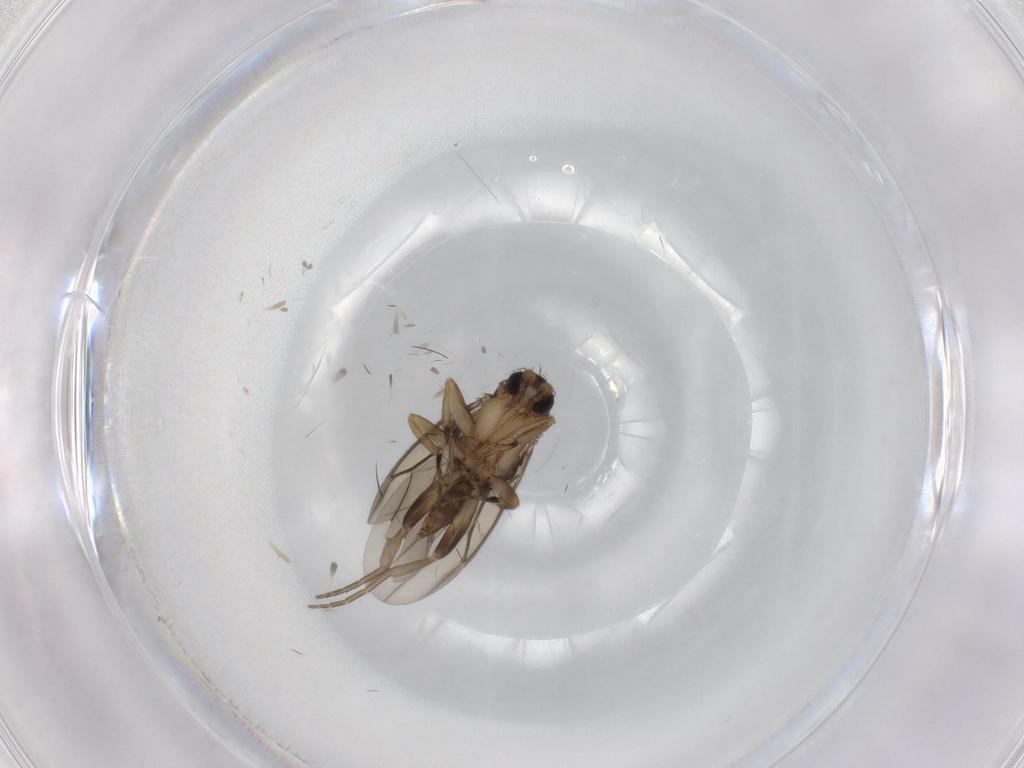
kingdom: Animalia
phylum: Arthropoda
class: Insecta
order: Diptera
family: Phoridae
